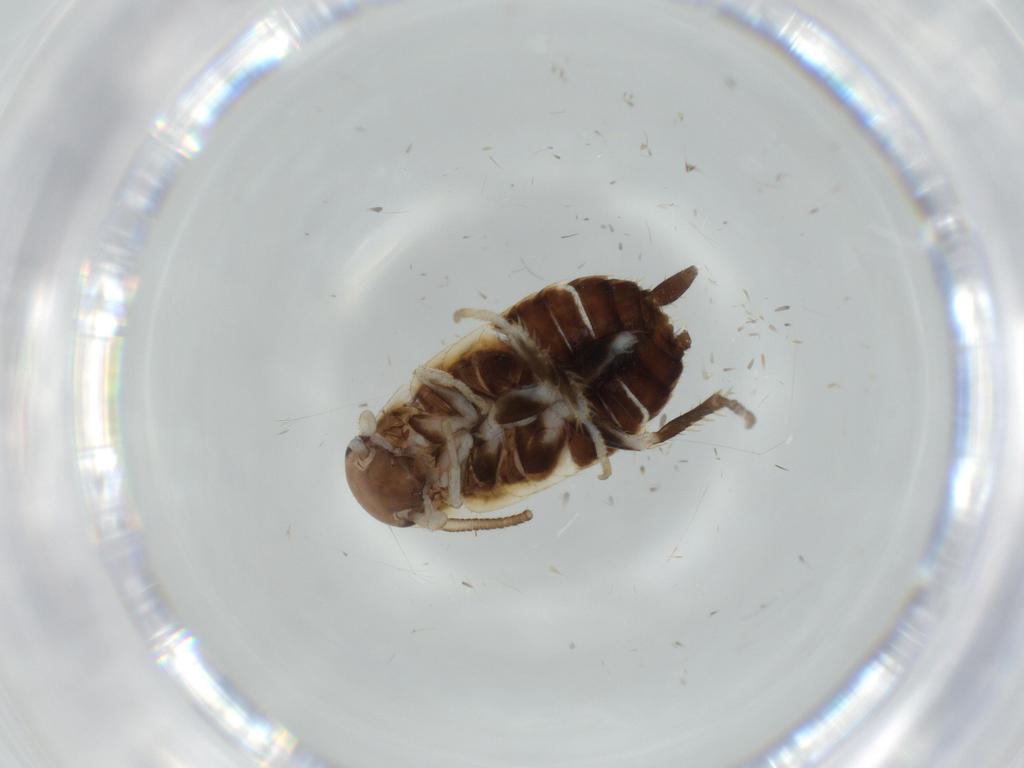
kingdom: Animalia
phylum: Arthropoda
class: Insecta
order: Blattodea
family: Ectobiidae
